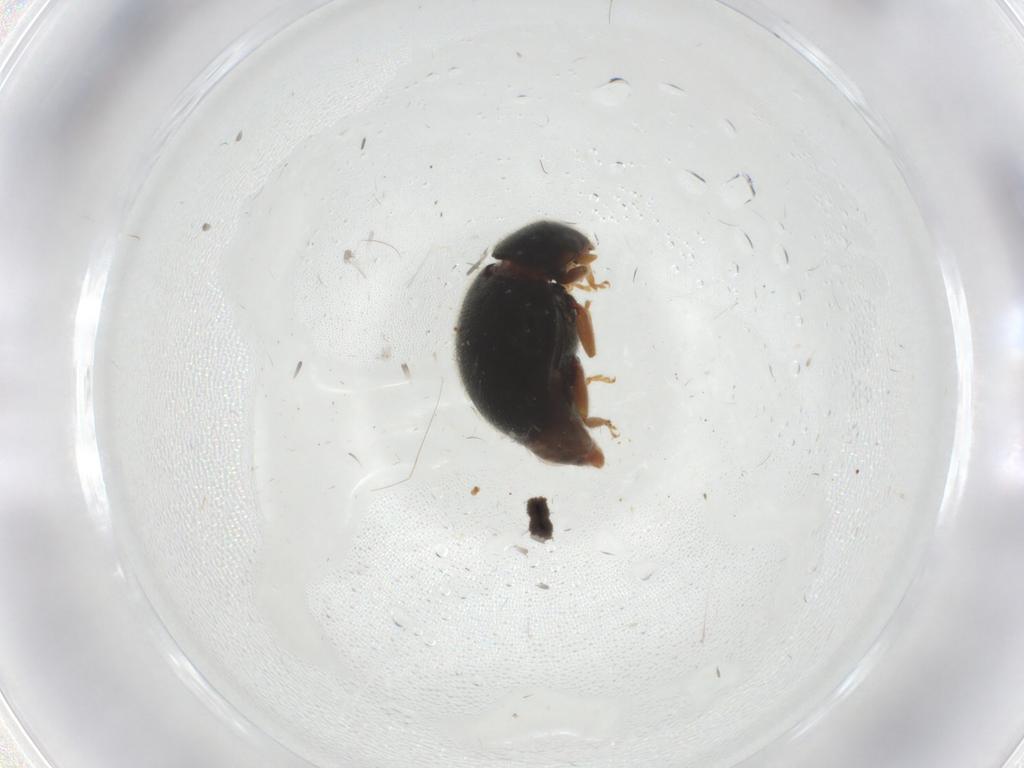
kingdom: Animalia
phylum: Arthropoda
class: Insecta
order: Coleoptera
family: Coccinellidae
